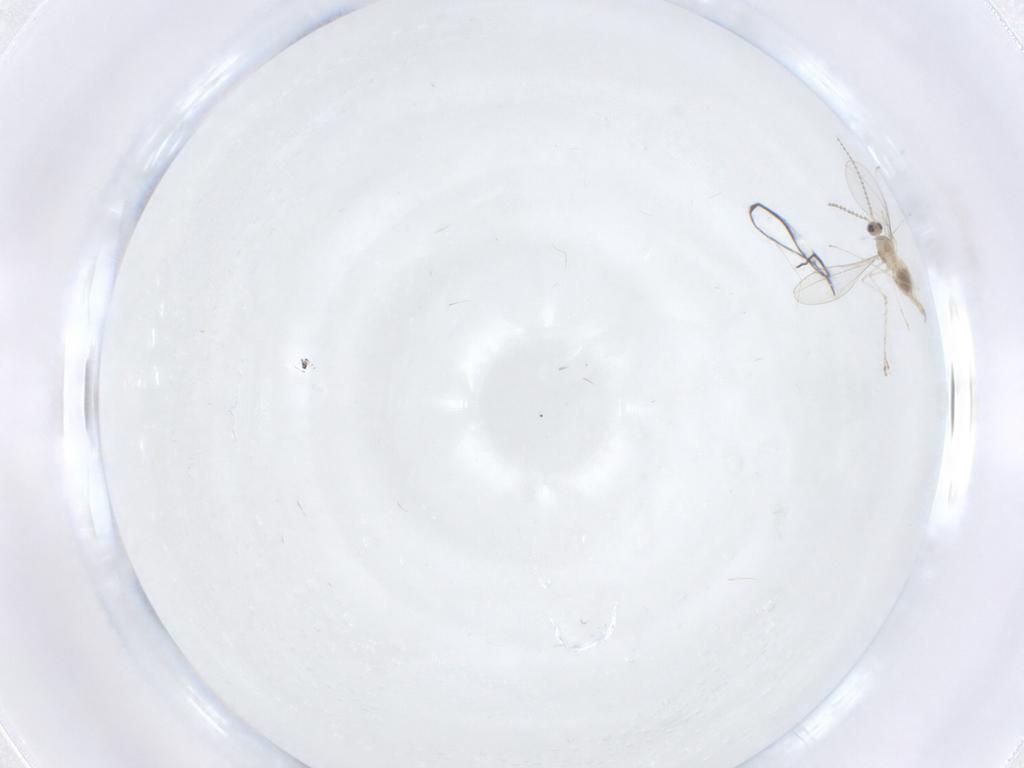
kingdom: Animalia
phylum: Arthropoda
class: Insecta
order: Diptera
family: Cecidomyiidae
